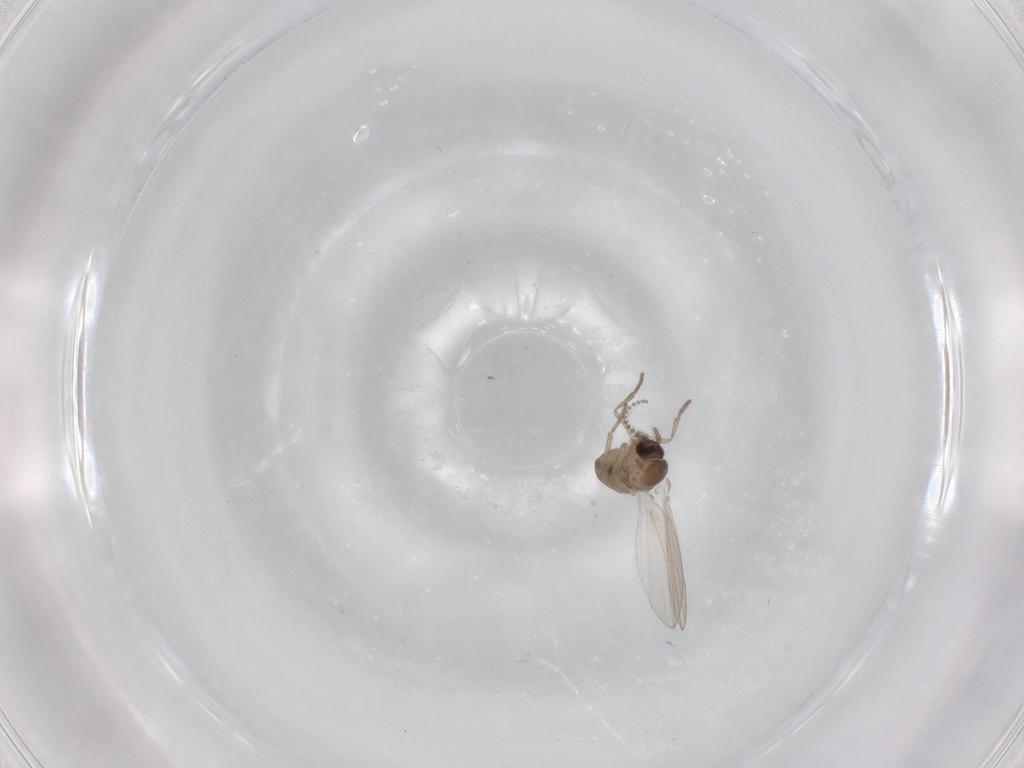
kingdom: Animalia
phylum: Arthropoda
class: Insecta
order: Diptera
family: Psychodidae
